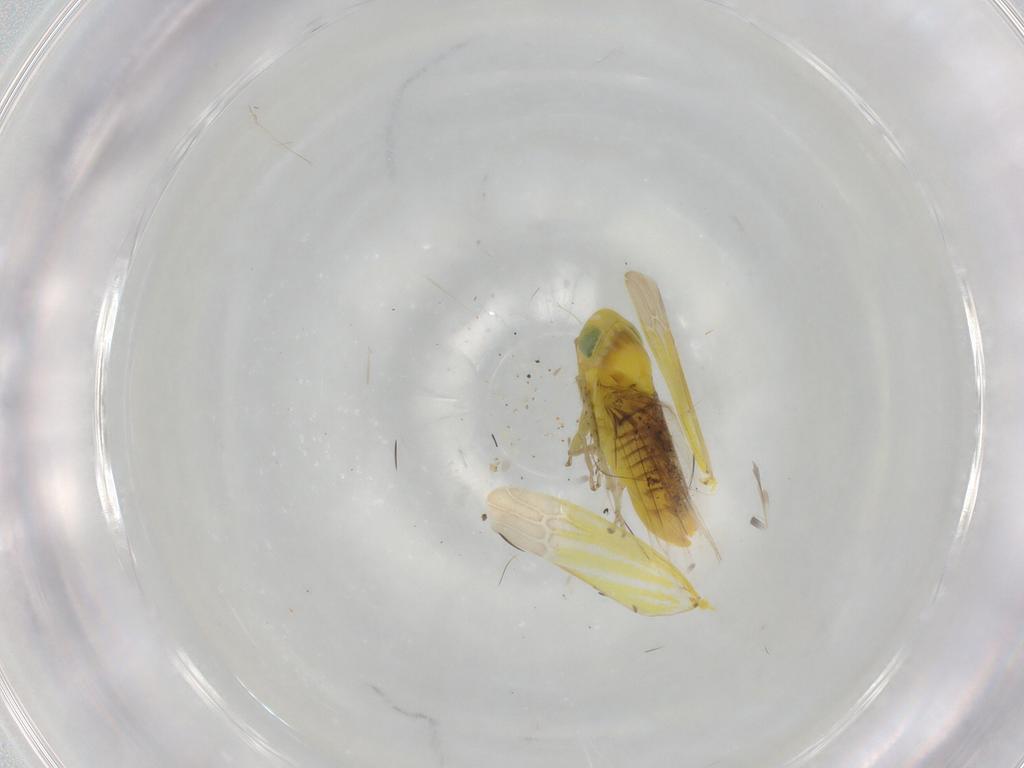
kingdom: Animalia
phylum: Arthropoda
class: Insecta
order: Hemiptera
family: Cicadellidae
